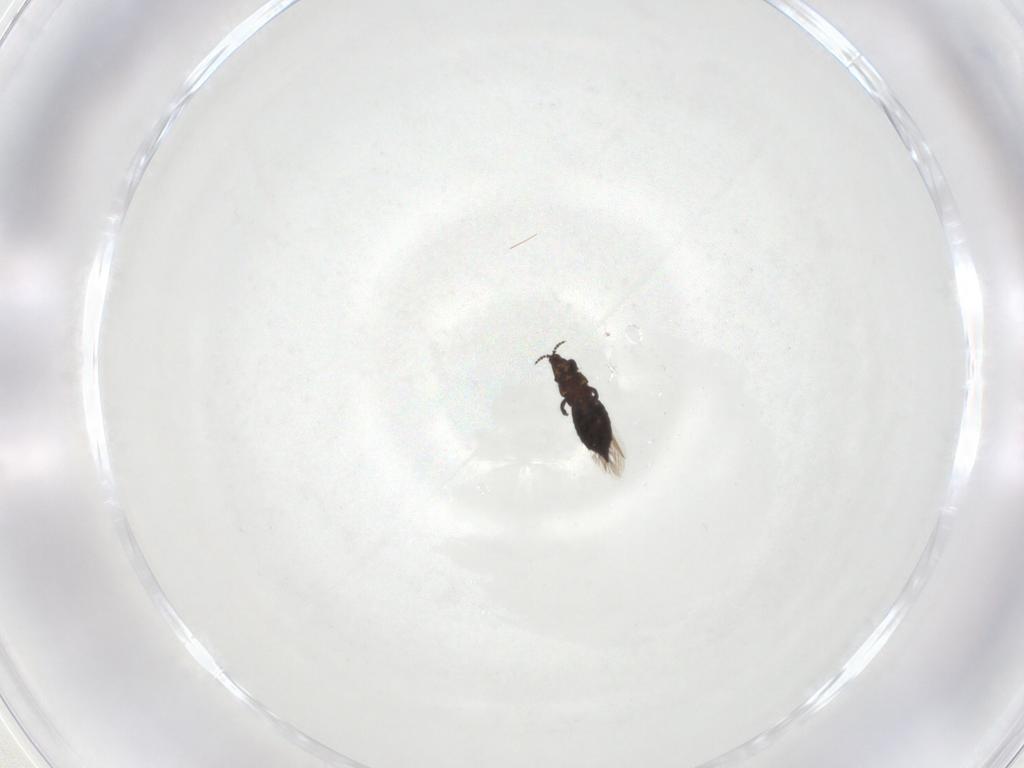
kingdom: Animalia
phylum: Arthropoda
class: Insecta
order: Thysanoptera
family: Thripidae
